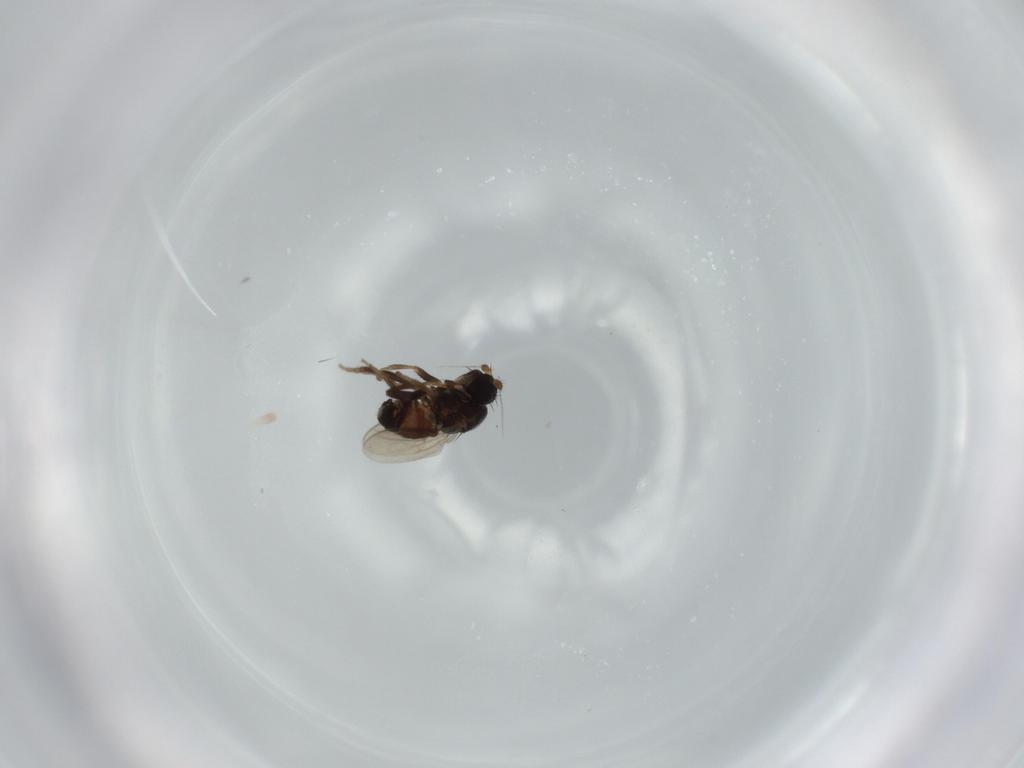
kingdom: Animalia
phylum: Arthropoda
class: Insecta
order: Diptera
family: Sphaeroceridae
